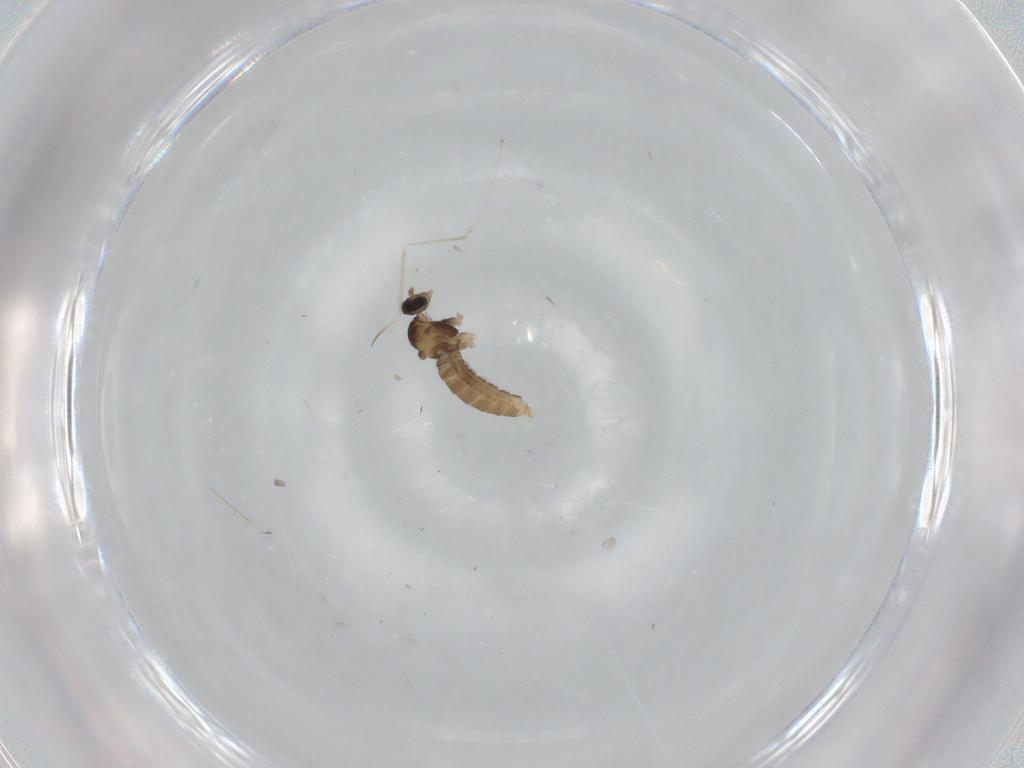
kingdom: Animalia
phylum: Arthropoda
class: Insecta
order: Diptera
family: Cecidomyiidae
